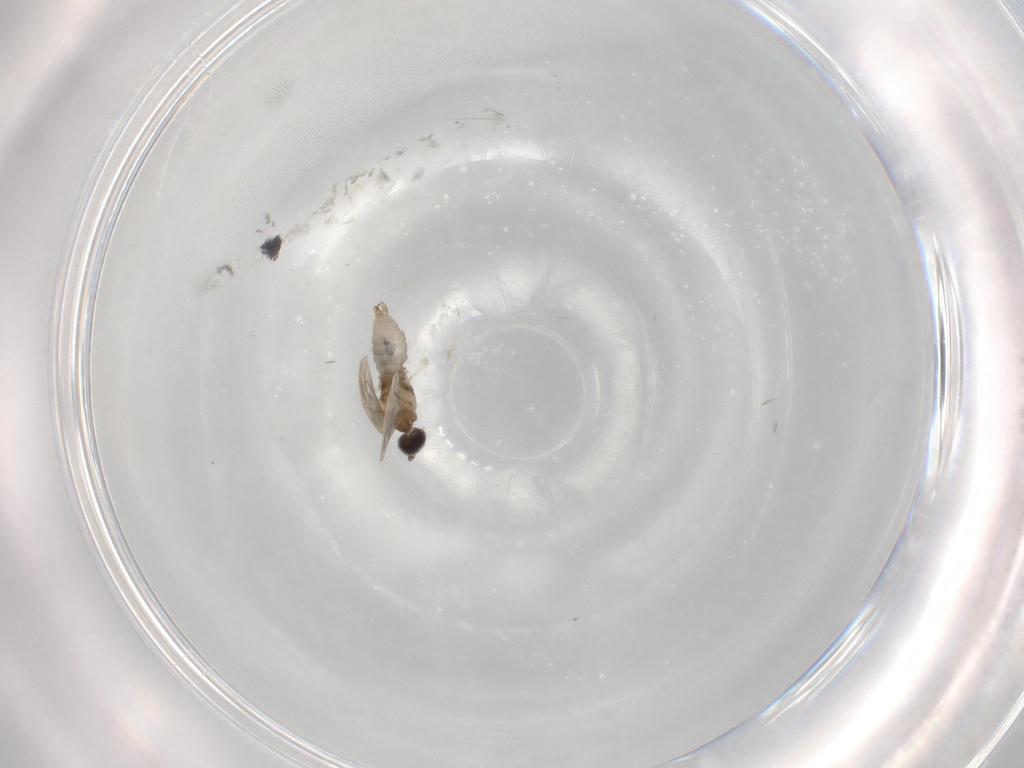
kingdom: Animalia
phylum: Arthropoda
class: Insecta
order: Diptera
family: Cecidomyiidae
